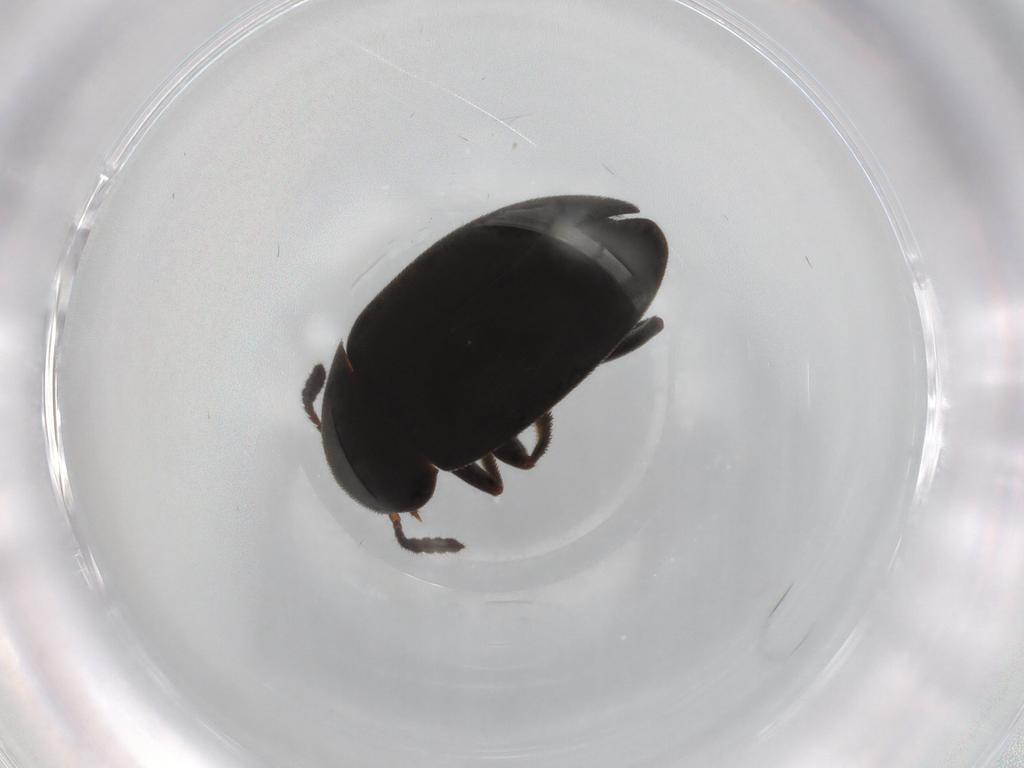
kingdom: Animalia
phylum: Arthropoda
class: Insecta
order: Coleoptera
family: Leiodidae
